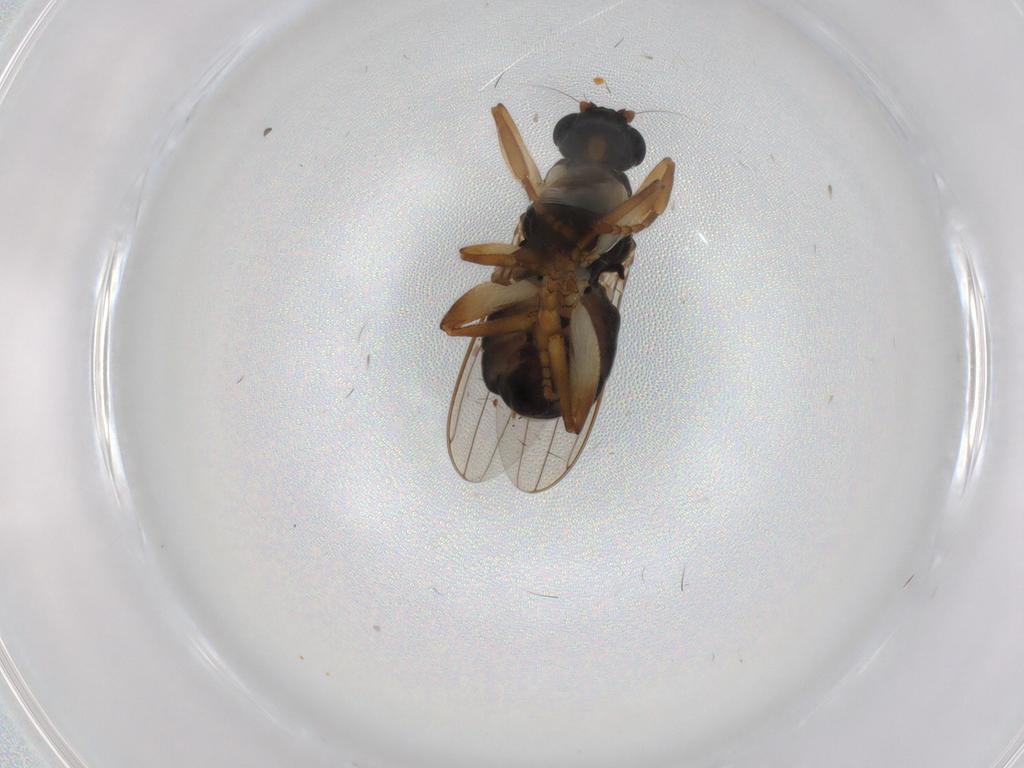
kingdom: Animalia
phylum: Arthropoda
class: Insecta
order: Diptera
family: Sphaeroceridae
